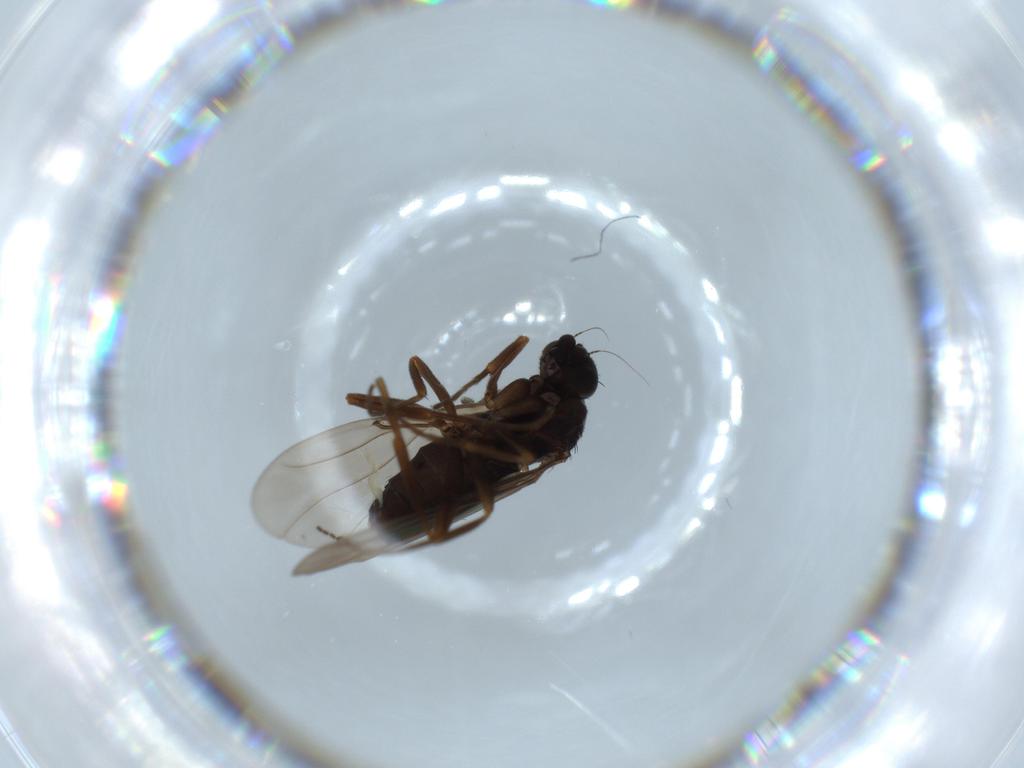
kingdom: Animalia
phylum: Arthropoda
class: Insecta
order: Diptera
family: Phoridae
